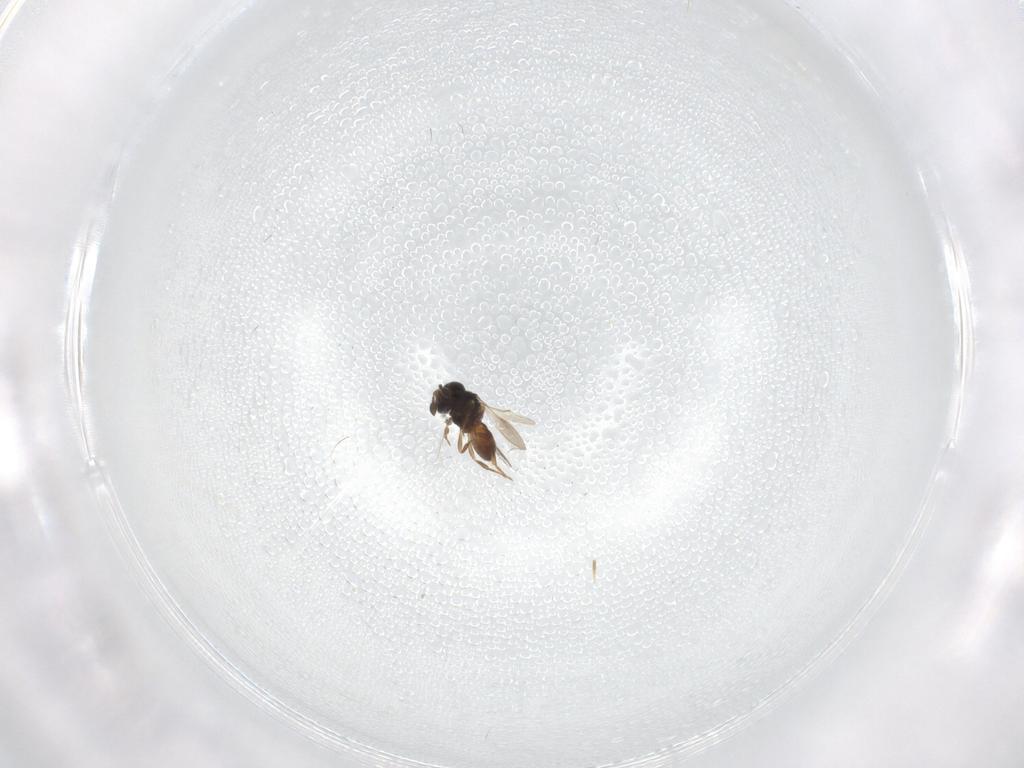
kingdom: Animalia
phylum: Arthropoda
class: Insecta
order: Hymenoptera
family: Scelionidae
